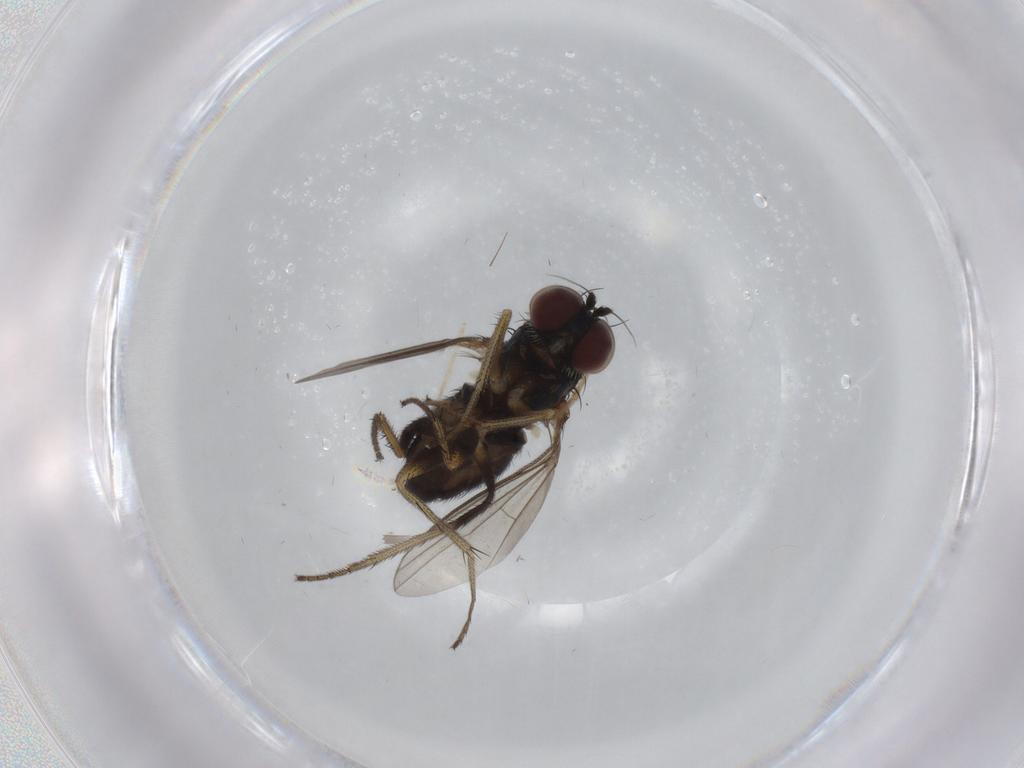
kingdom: Animalia
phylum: Arthropoda
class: Insecta
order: Diptera
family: Chironomidae
